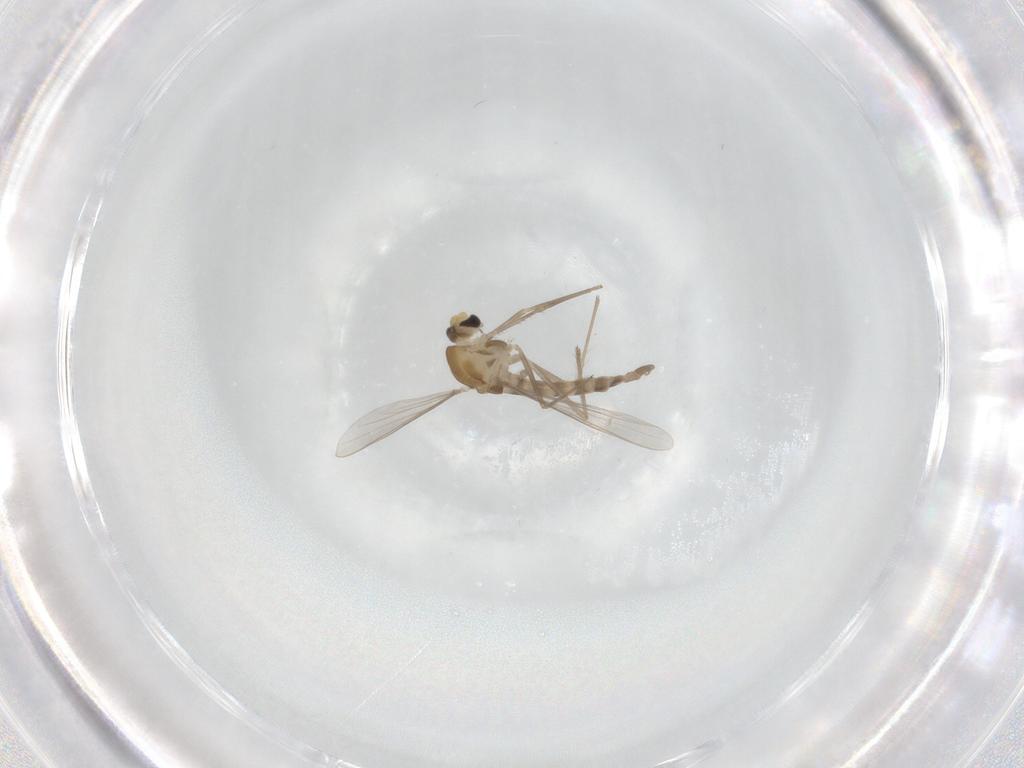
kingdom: Animalia
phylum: Arthropoda
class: Insecta
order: Diptera
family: Chironomidae
